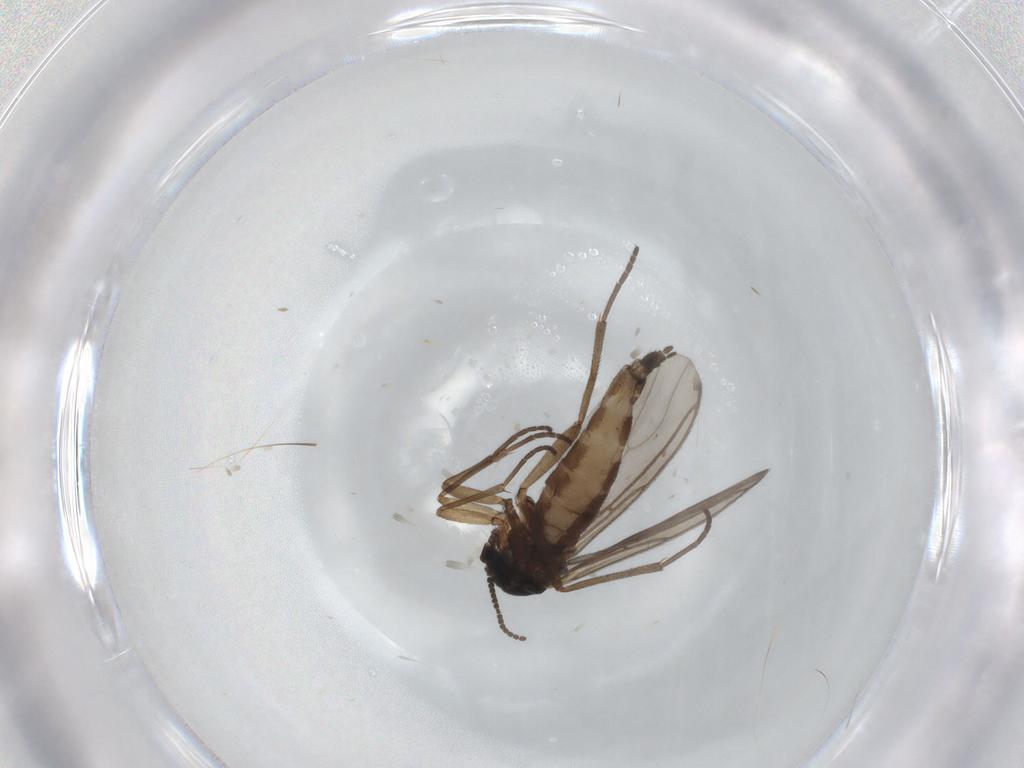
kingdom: Animalia
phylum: Arthropoda
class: Insecta
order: Diptera
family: Sciaridae
